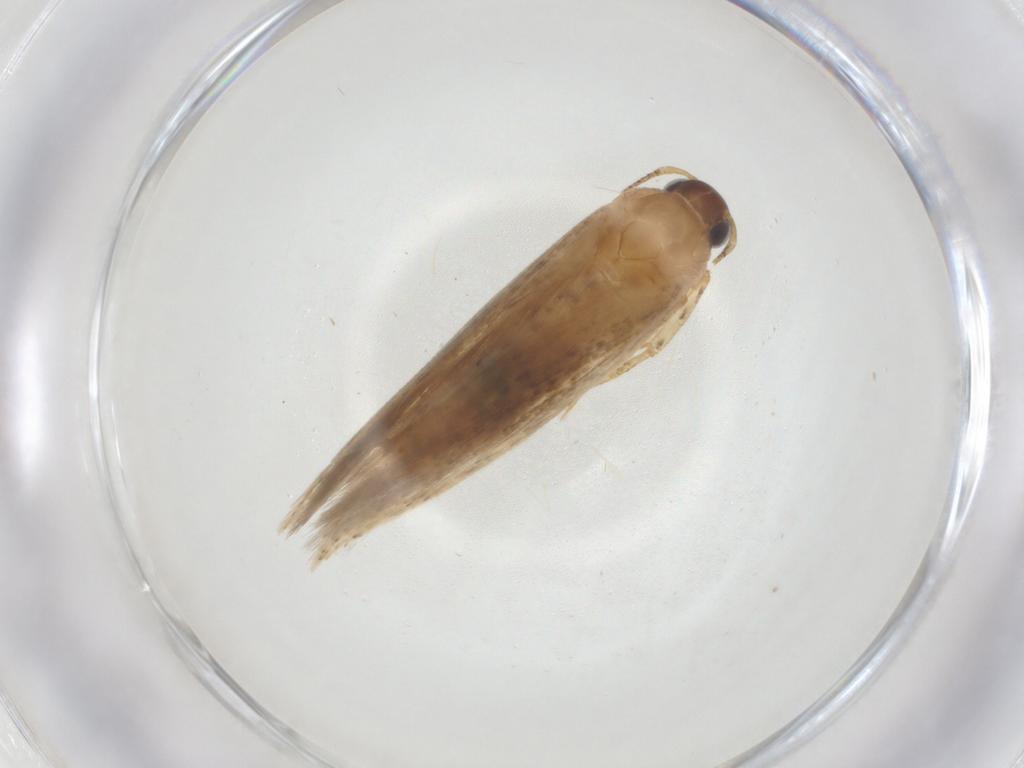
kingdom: Animalia
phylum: Arthropoda
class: Insecta
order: Lepidoptera
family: Gelechiidae
